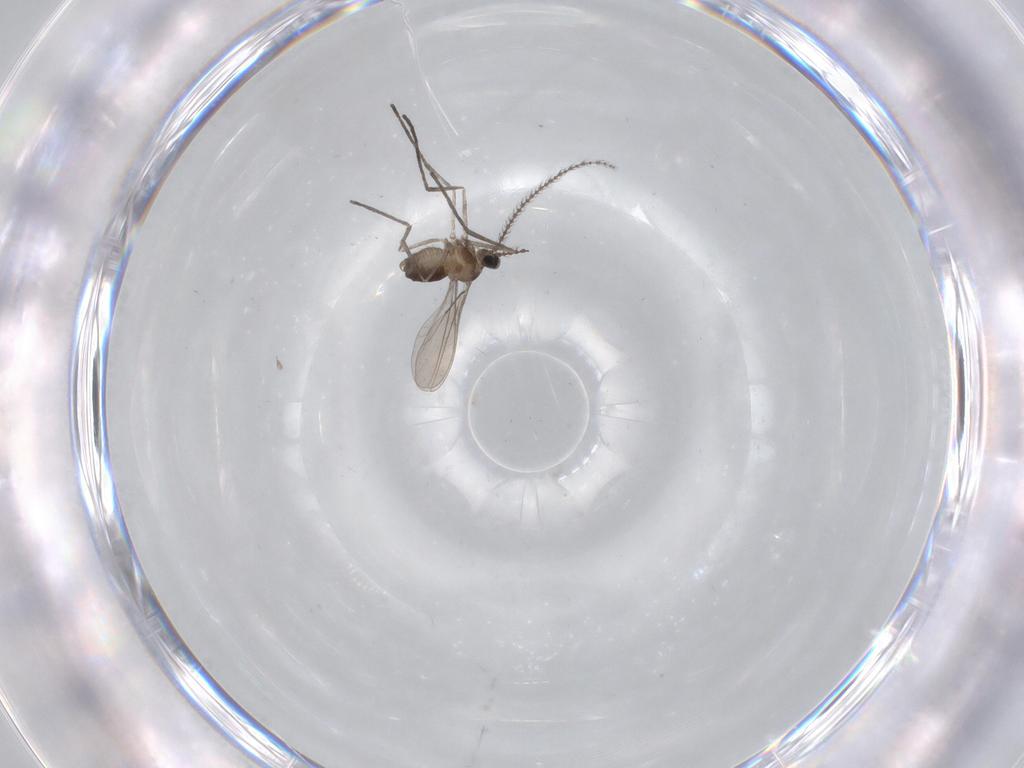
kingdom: Animalia
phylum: Arthropoda
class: Insecta
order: Diptera
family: Cecidomyiidae
